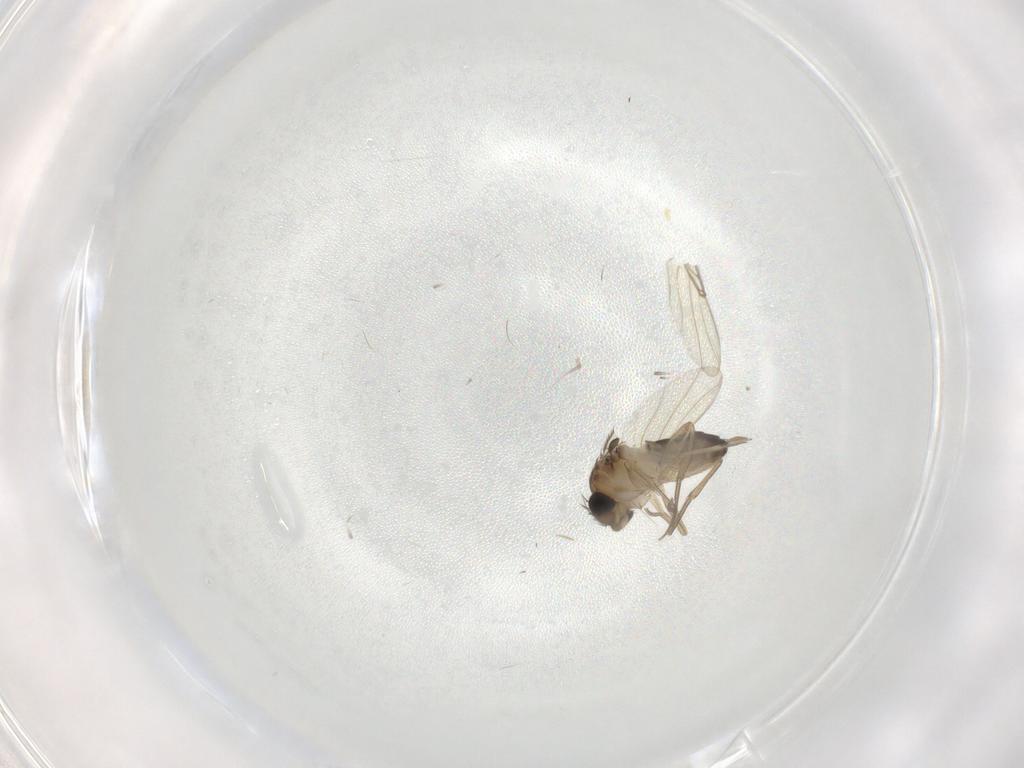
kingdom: Animalia
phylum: Arthropoda
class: Insecta
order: Diptera
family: Phoridae
